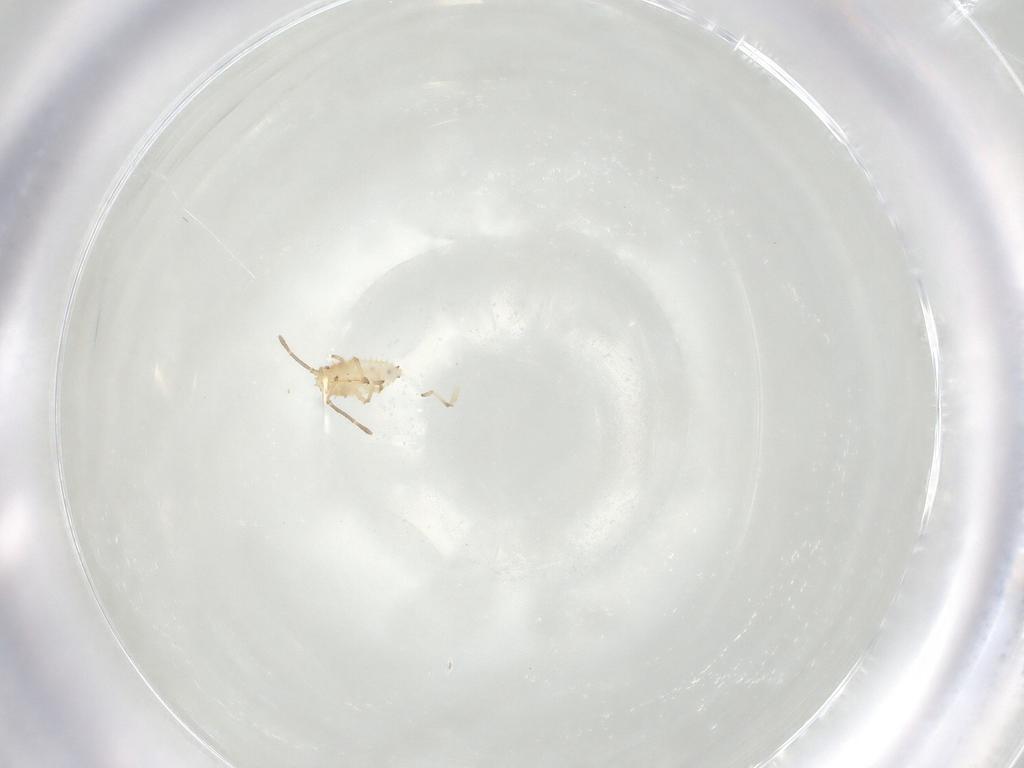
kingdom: Animalia
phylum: Arthropoda
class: Insecta
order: Hemiptera
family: Tingidae
